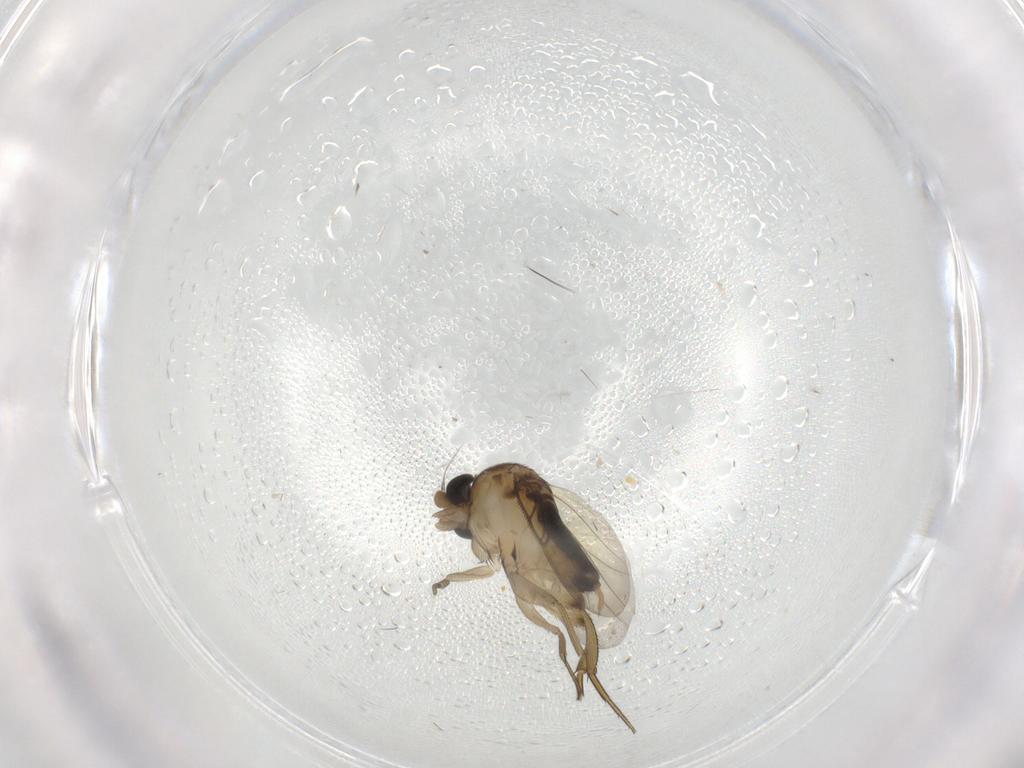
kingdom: Animalia
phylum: Arthropoda
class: Insecta
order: Diptera
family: Phoridae
